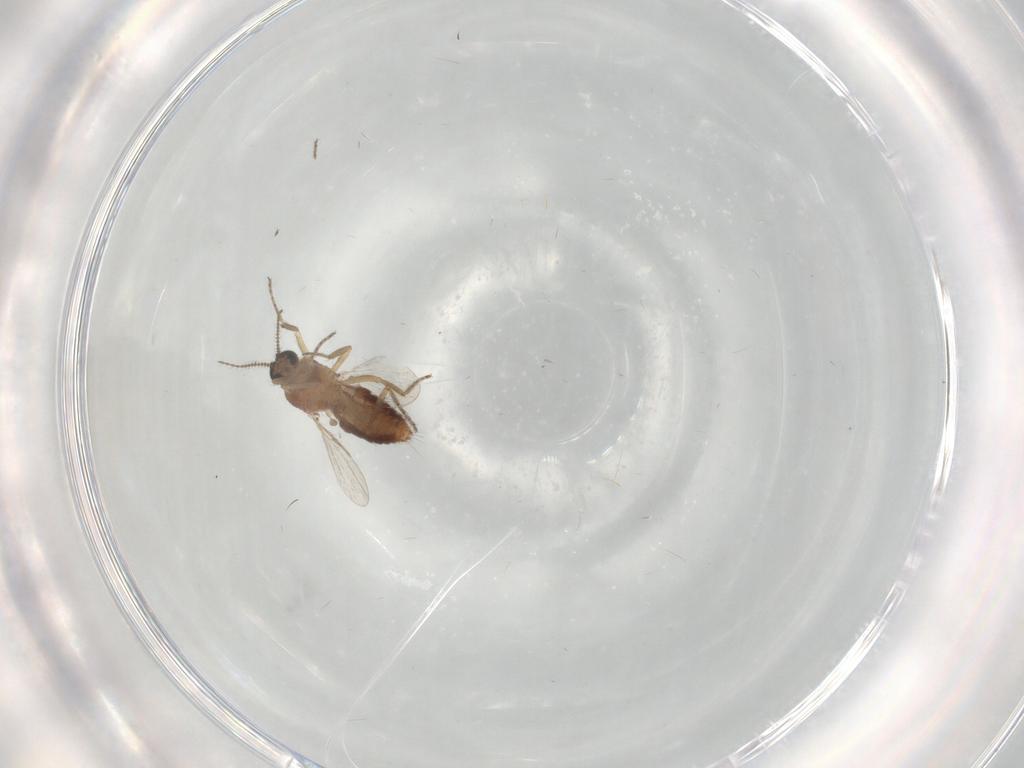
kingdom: Animalia
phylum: Arthropoda
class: Insecta
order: Diptera
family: Ceratopogonidae
